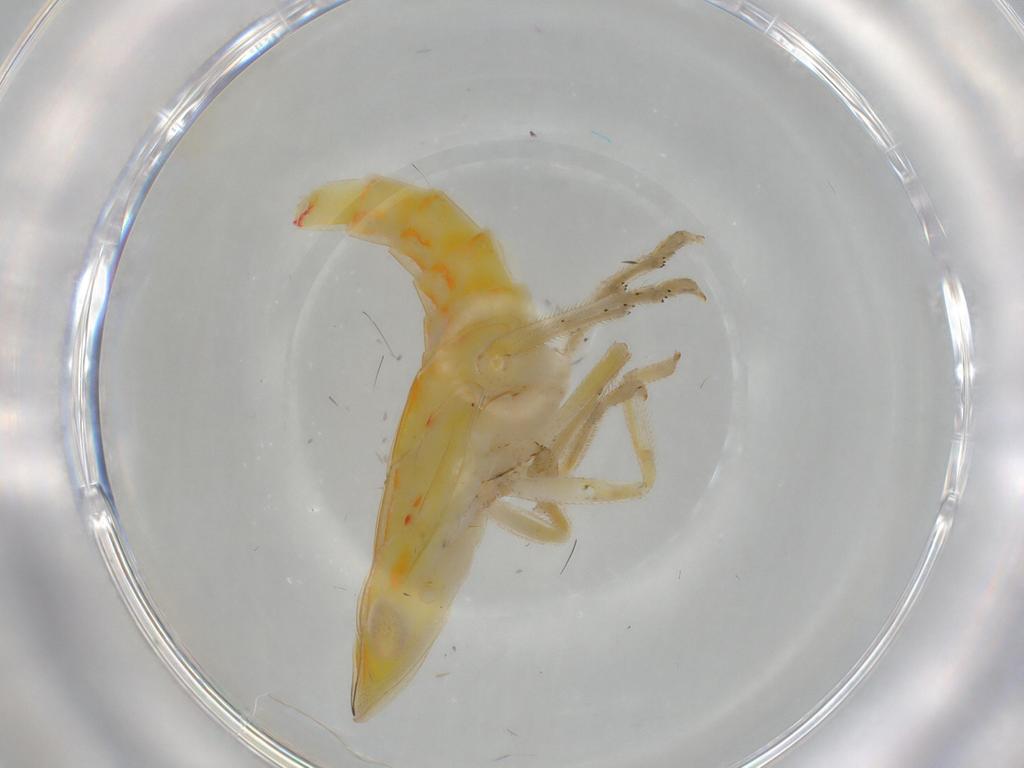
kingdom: Animalia
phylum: Arthropoda
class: Insecta
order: Hemiptera
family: Tropiduchidae
